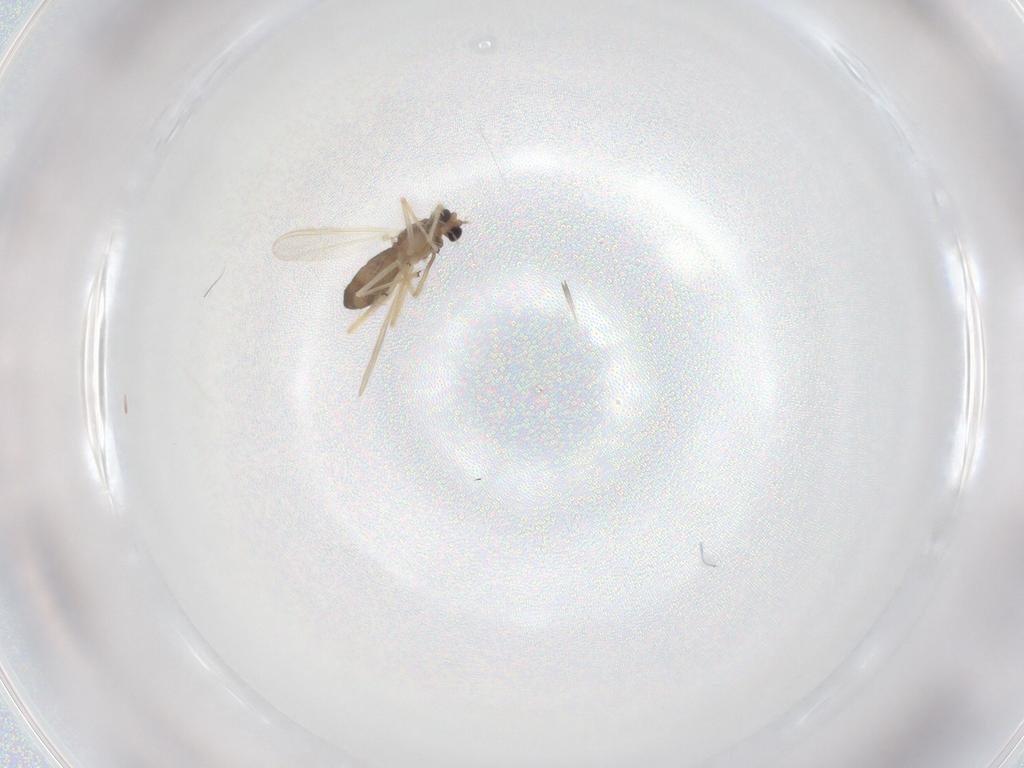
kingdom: Animalia
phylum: Arthropoda
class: Insecta
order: Diptera
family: Chironomidae
